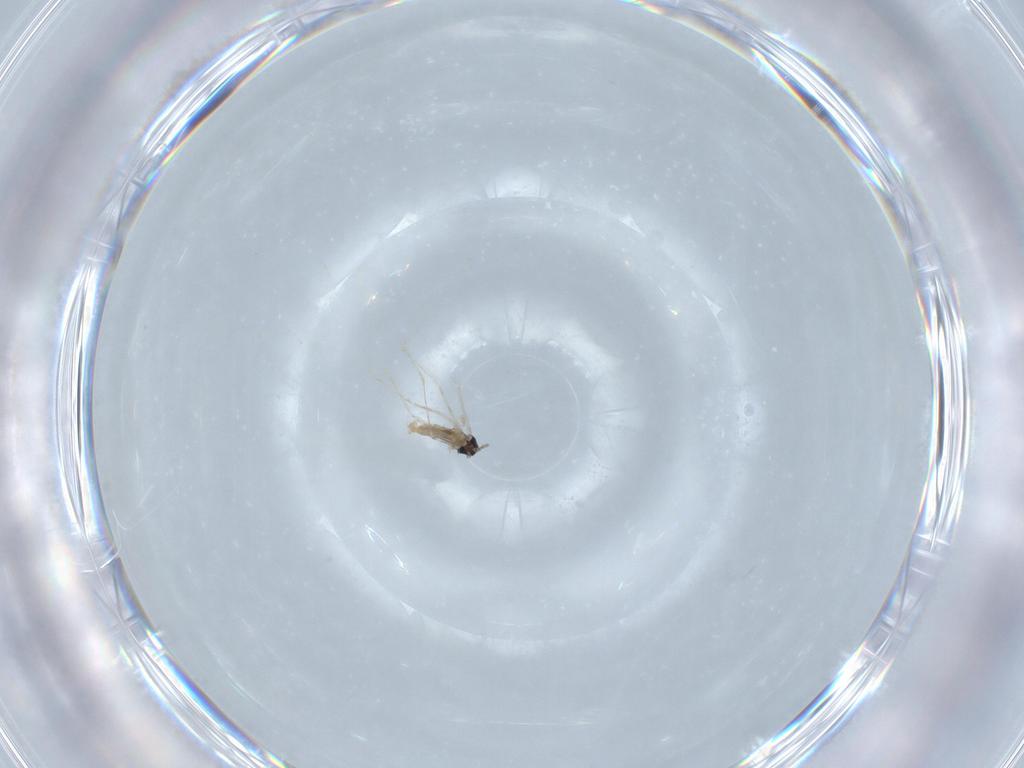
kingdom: Animalia
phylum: Arthropoda
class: Insecta
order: Diptera
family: Cecidomyiidae
